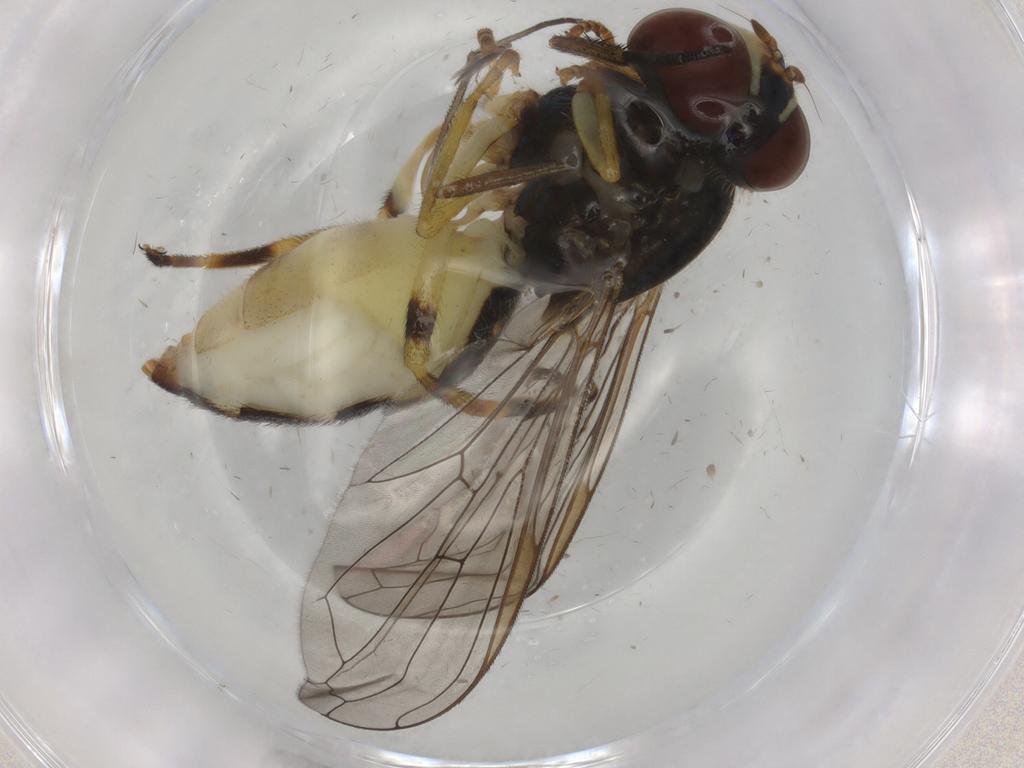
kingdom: Animalia
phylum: Arthropoda
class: Insecta
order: Diptera
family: Syrphidae
